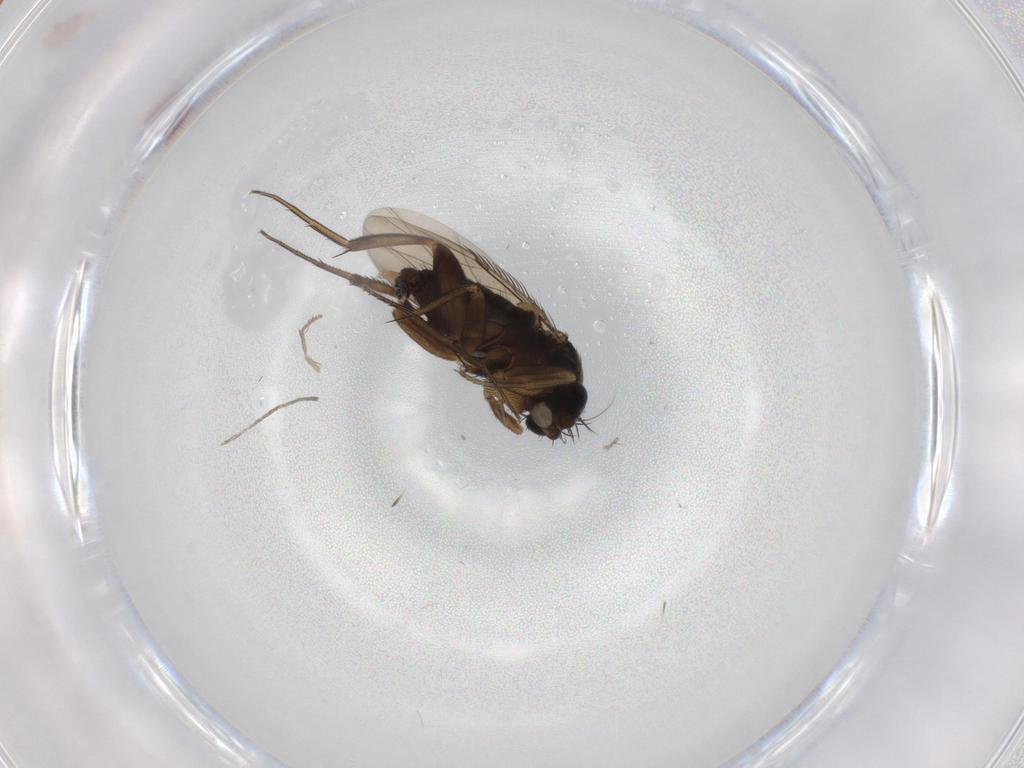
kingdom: Animalia
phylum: Arthropoda
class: Insecta
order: Diptera
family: Phoridae
